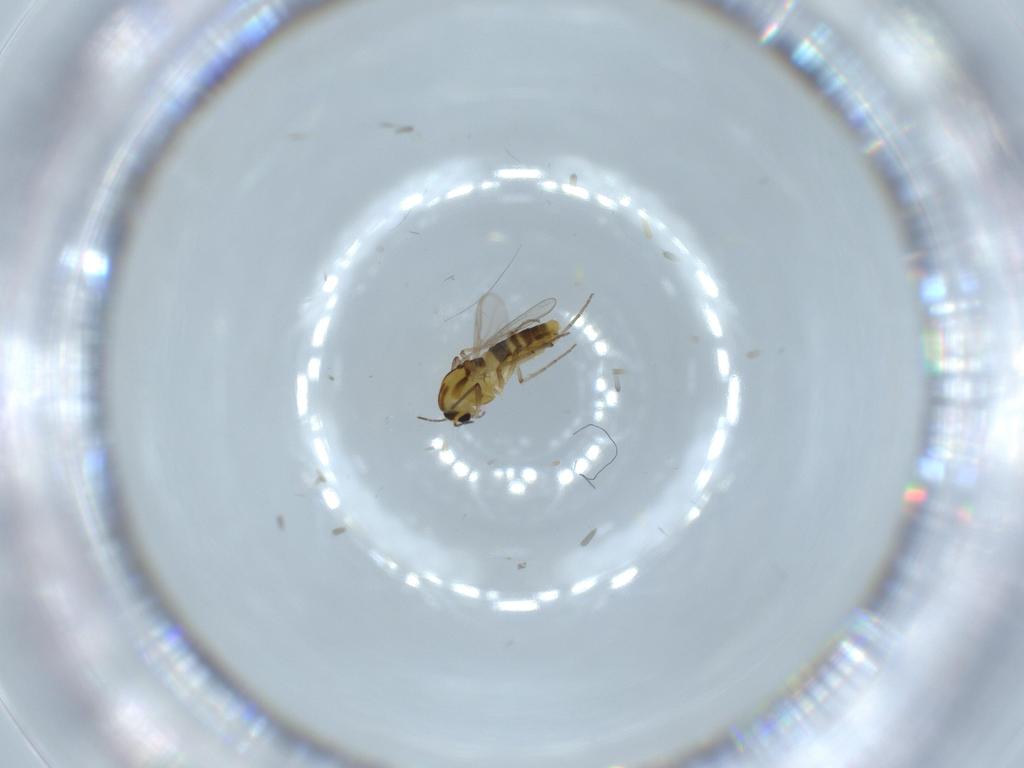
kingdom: Animalia
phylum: Arthropoda
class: Insecta
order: Diptera
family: Chironomidae
